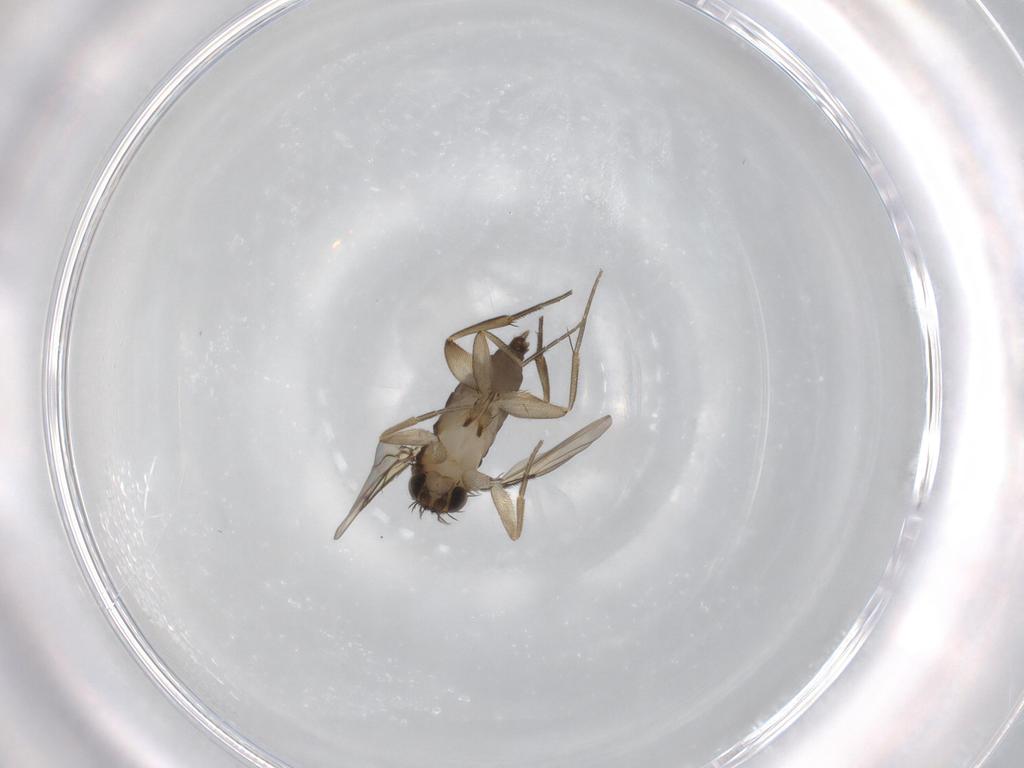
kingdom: Animalia
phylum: Arthropoda
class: Insecta
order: Diptera
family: Phoridae
